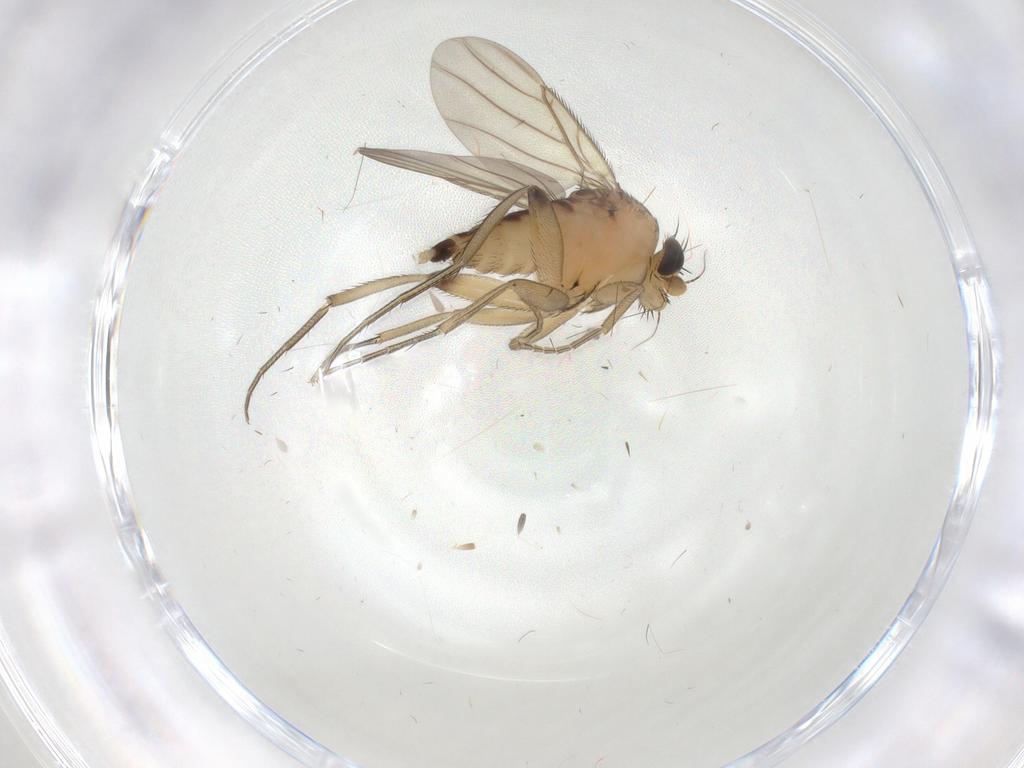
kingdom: Animalia
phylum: Arthropoda
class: Insecta
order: Diptera
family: Phoridae
